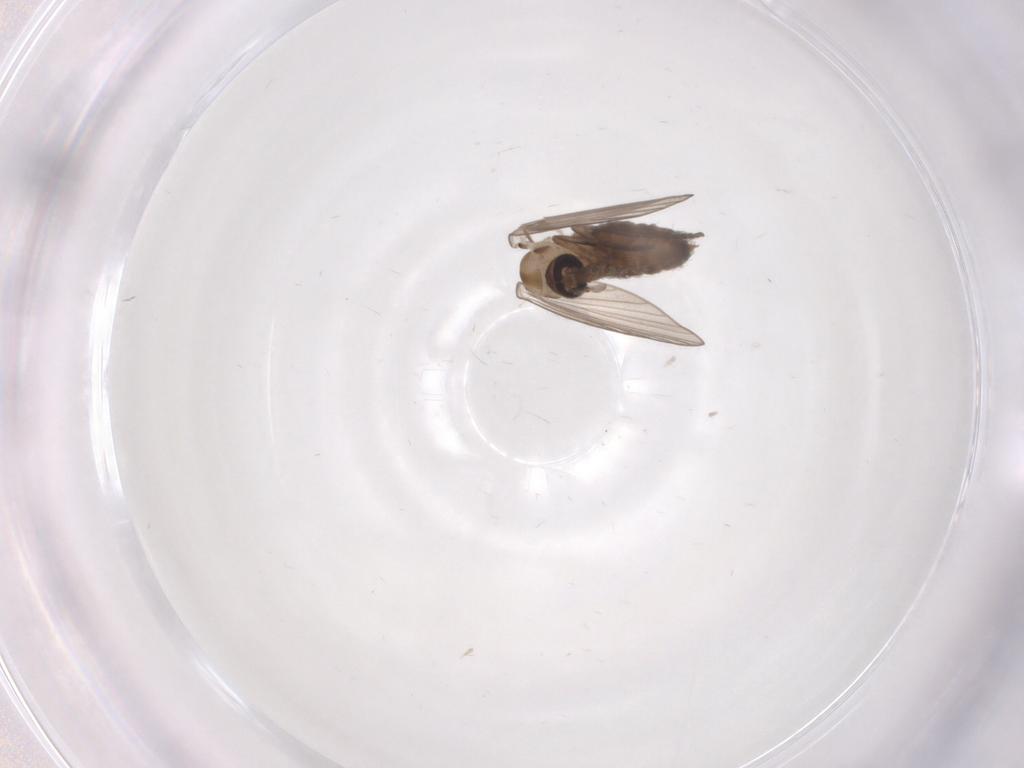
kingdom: Animalia
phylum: Arthropoda
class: Insecta
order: Diptera
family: Psychodidae
